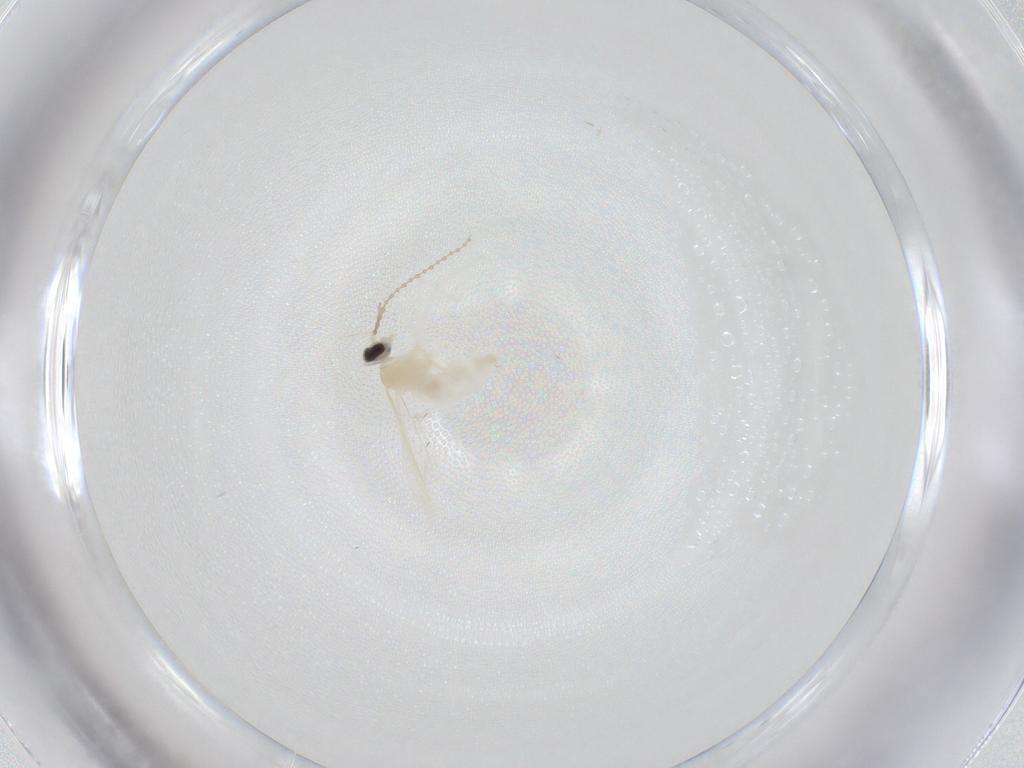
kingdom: Animalia
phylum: Arthropoda
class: Insecta
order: Diptera
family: Cecidomyiidae
